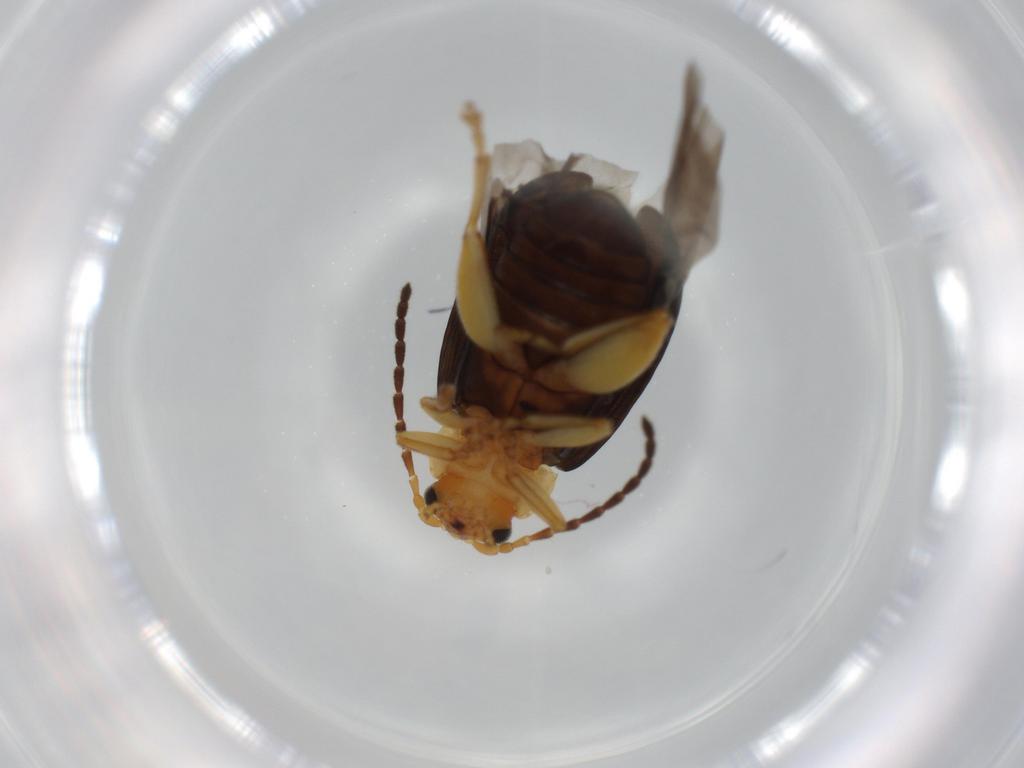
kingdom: Animalia
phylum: Arthropoda
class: Insecta
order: Coleoptera
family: Chrysomelidae
